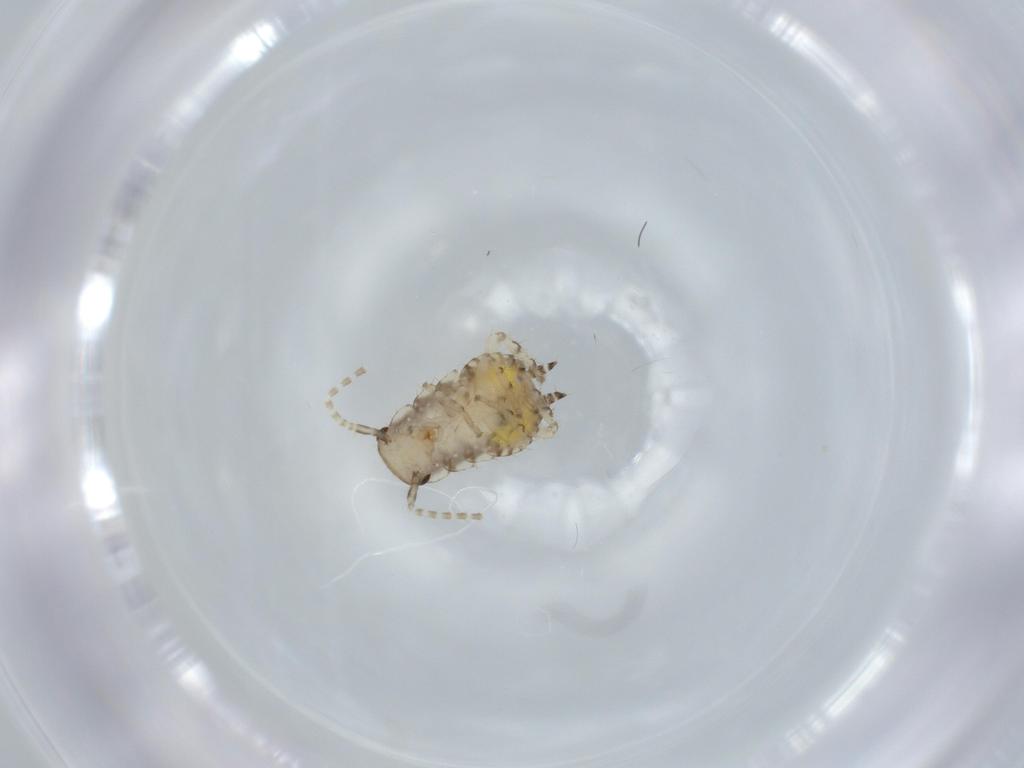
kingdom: Animalia
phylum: Arthropoda
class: Insecta
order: Blattodea
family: Ectobiidae
